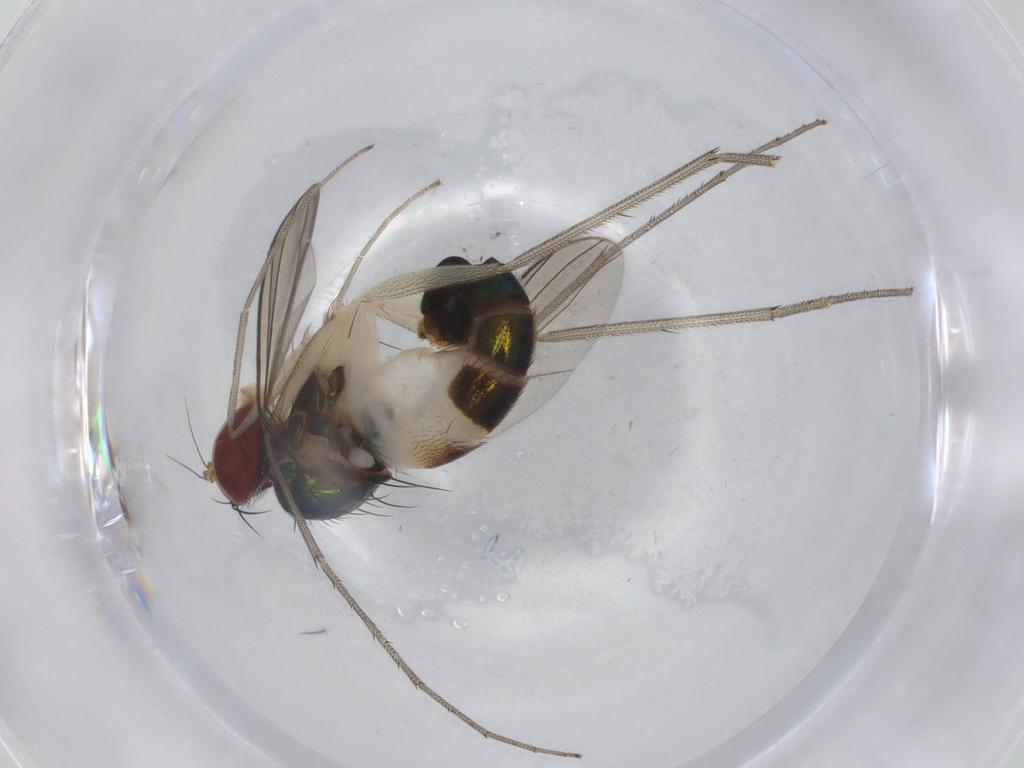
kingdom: Animalia
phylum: Arthropoda
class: Insecta
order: Diptera
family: Dolichopodidae
